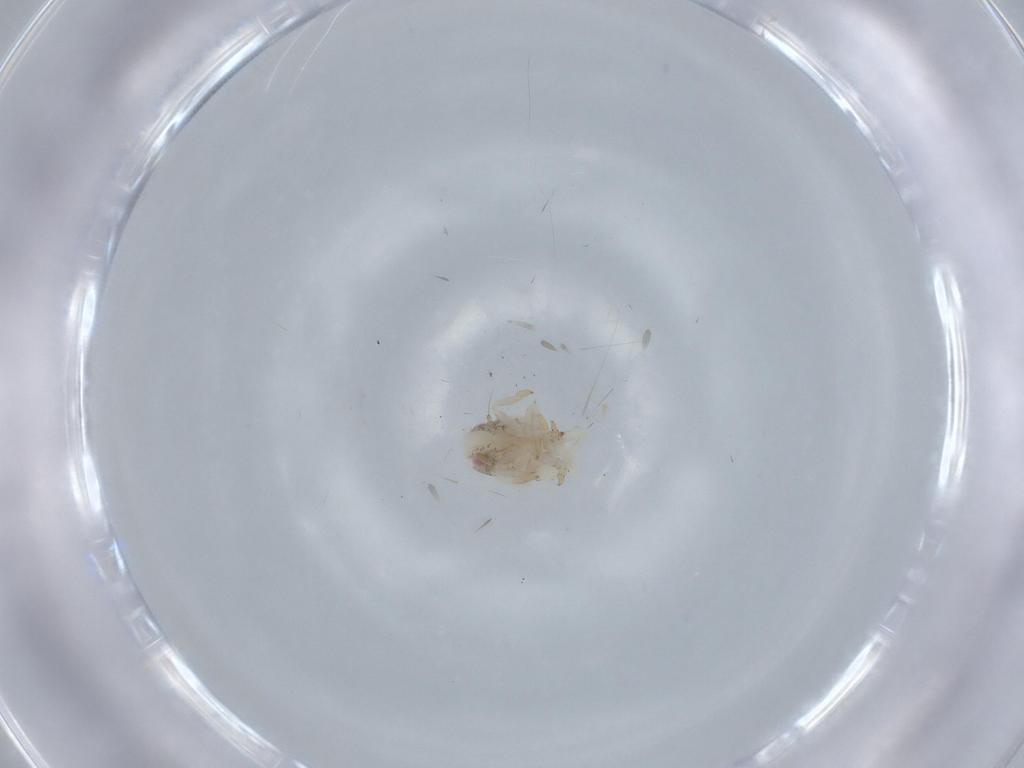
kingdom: Animalia
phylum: Arthropoda
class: Insecta
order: Hemiptera
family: Acanaloniidae
